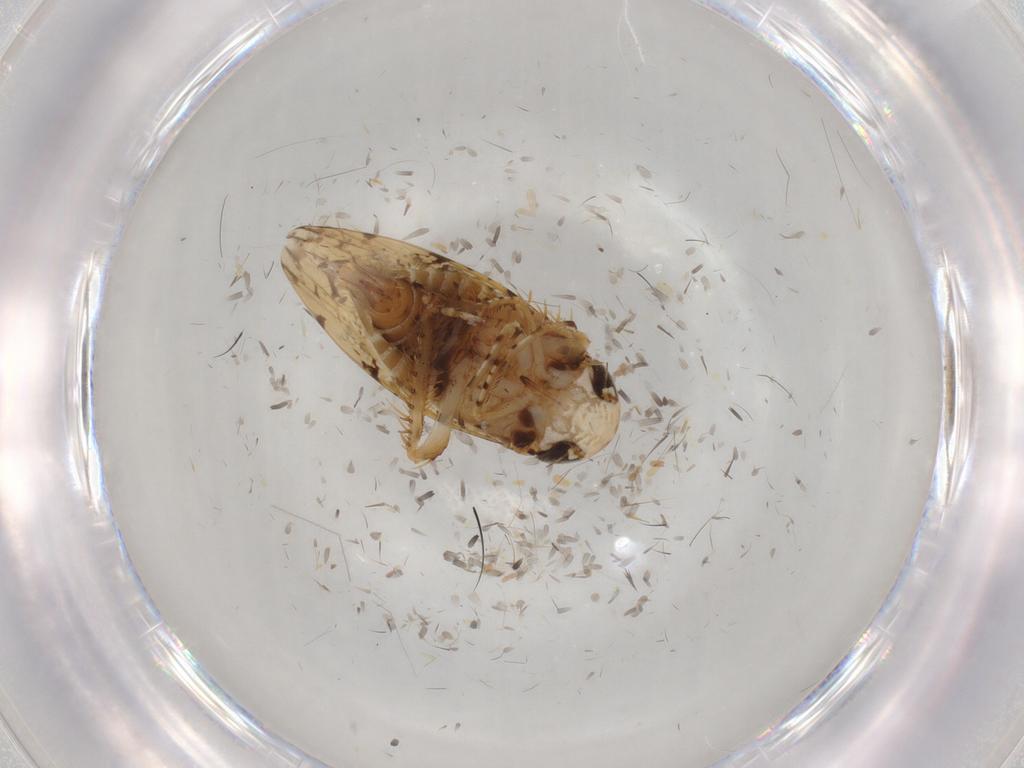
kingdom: Animalia
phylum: Arthropoda
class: Insecta
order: Hemiptera
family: Cicadellidae
